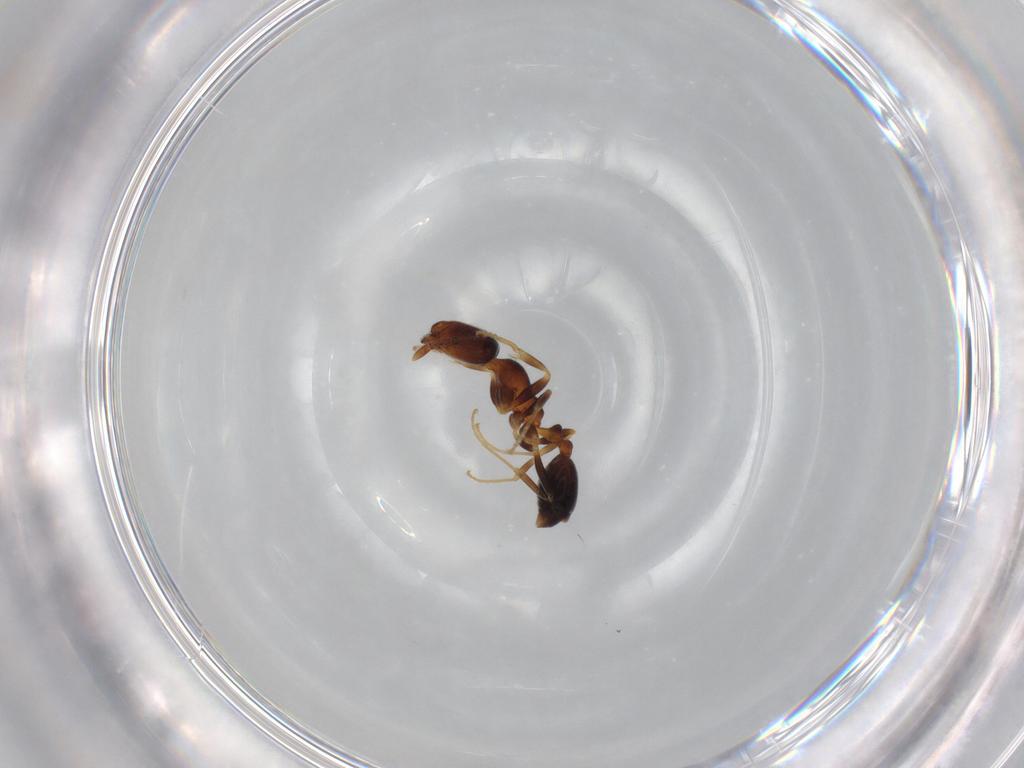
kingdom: Animalia
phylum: Arthropoda
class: Insecta
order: Hymenoptera
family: Formicidae
